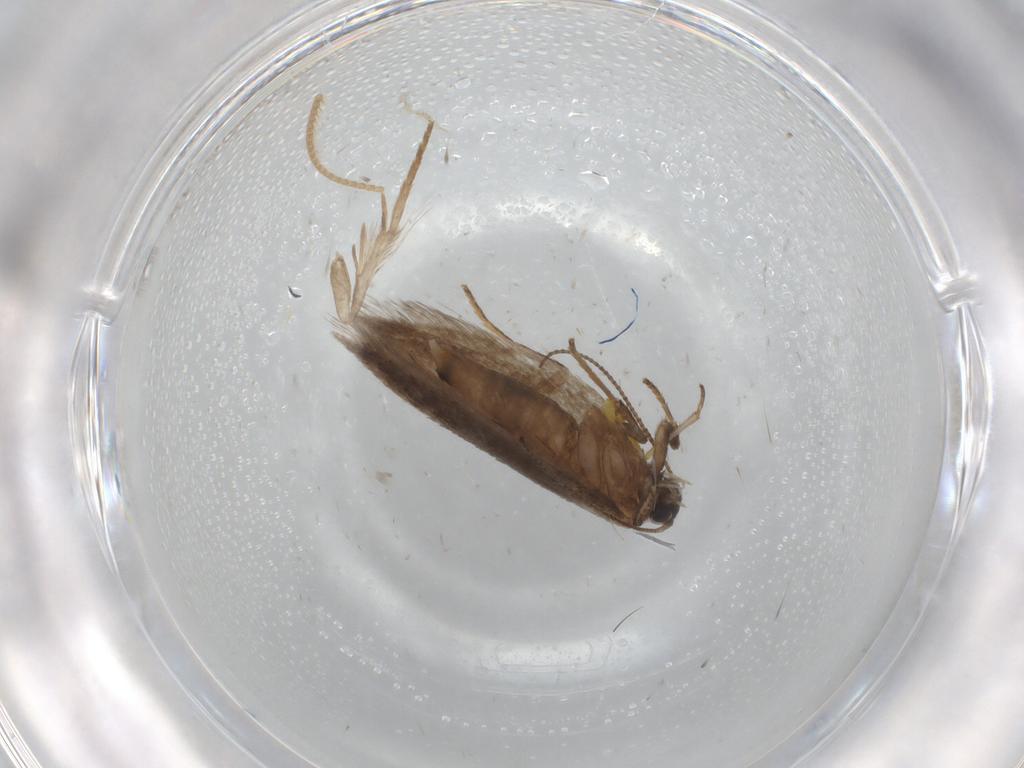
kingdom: Animalia
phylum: Arthropoda
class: Insecta
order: Lepidoptera
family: Nepticulidae
